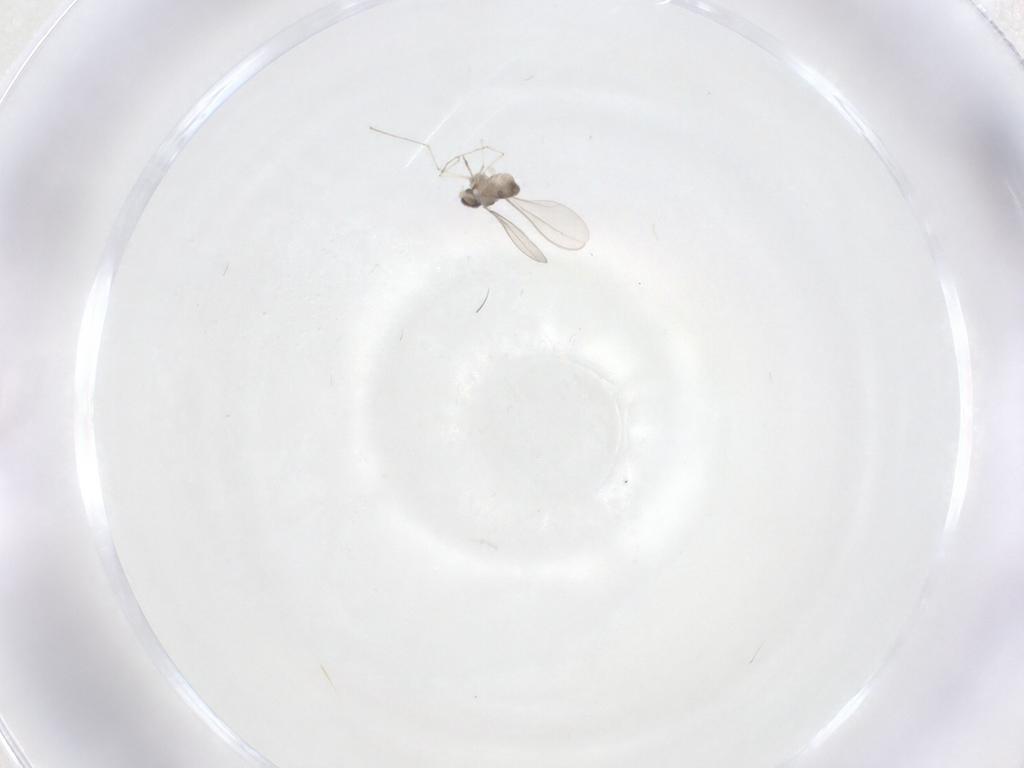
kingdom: Animalia
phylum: Arthropoda
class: Insecta
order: Diptera
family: Cecidomyiidae
